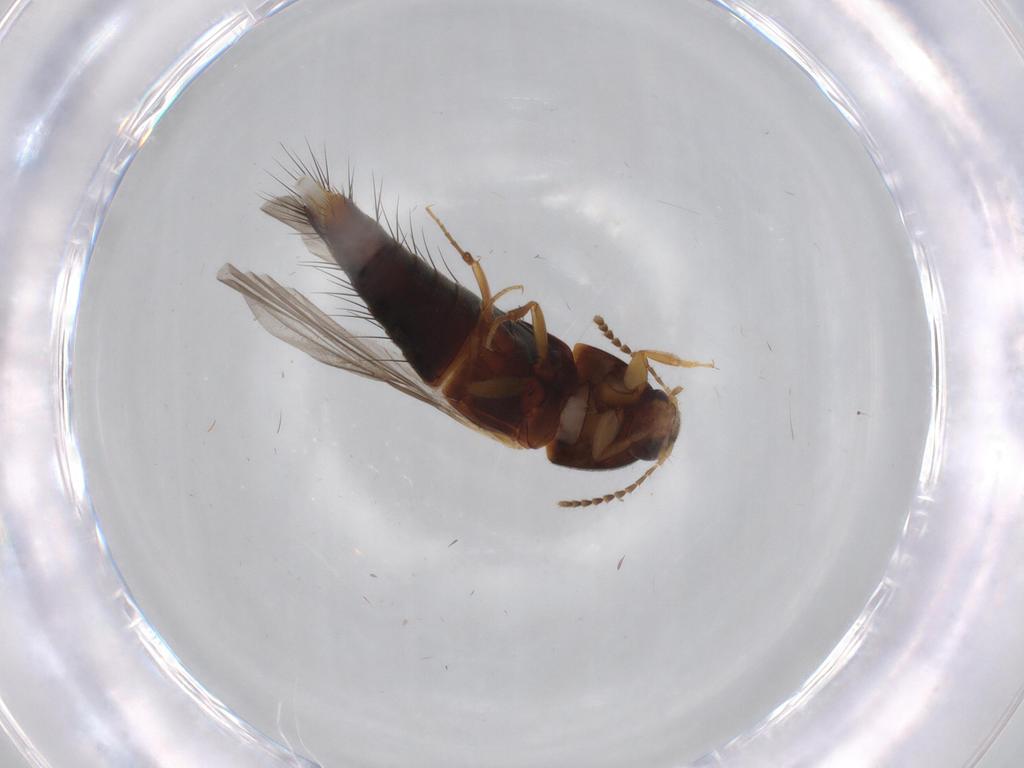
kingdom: Animalia
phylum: Arthropoda
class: Insecta
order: Coleoptera
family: Staphylinidae
